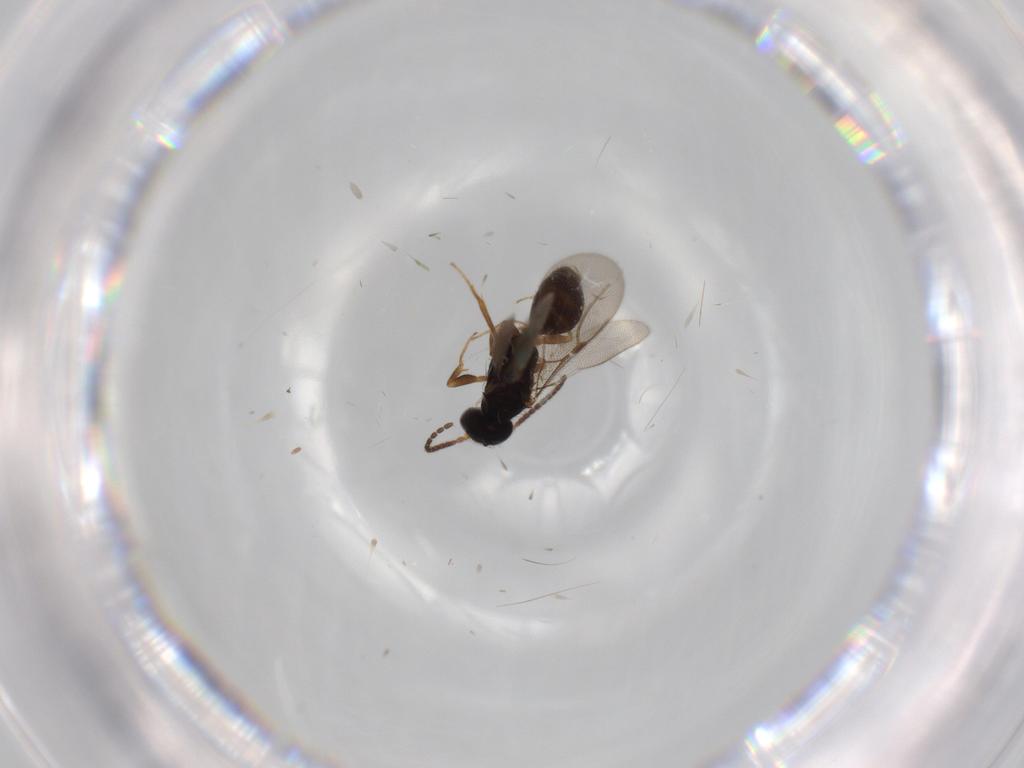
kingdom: Animalia
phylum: Arthropoda
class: Insecta
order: Hymenoptera
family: Bethylidae
